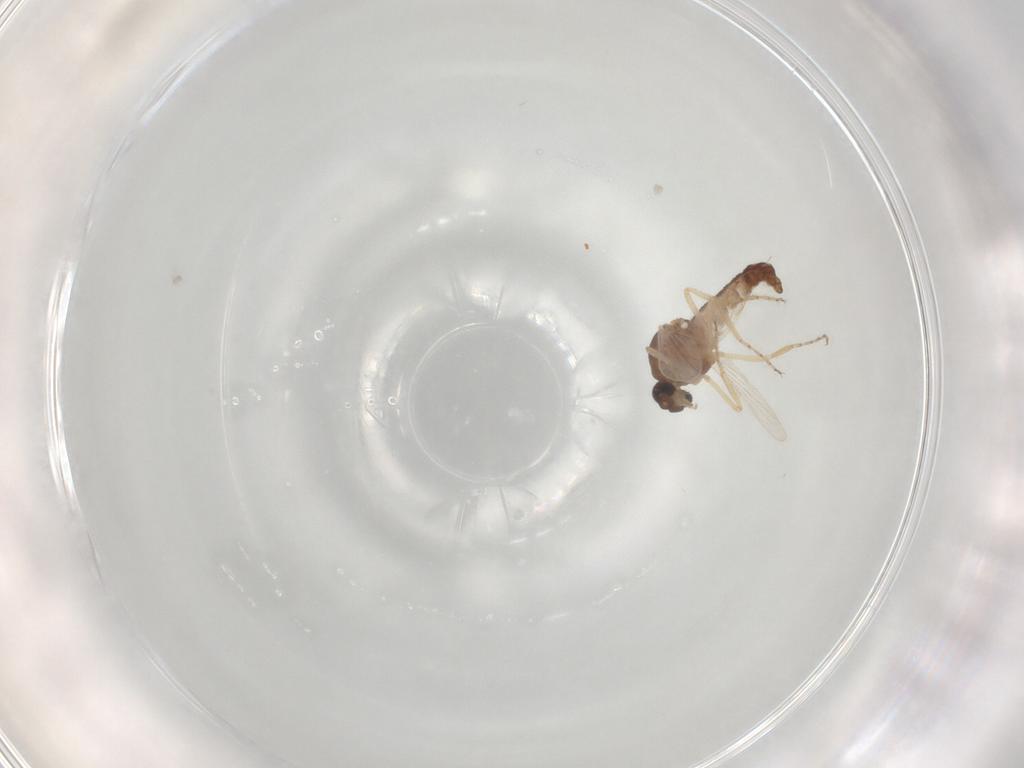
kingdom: Animalia
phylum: Arthropoda
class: Insecta
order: Diptera
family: Ceratopogonidae
